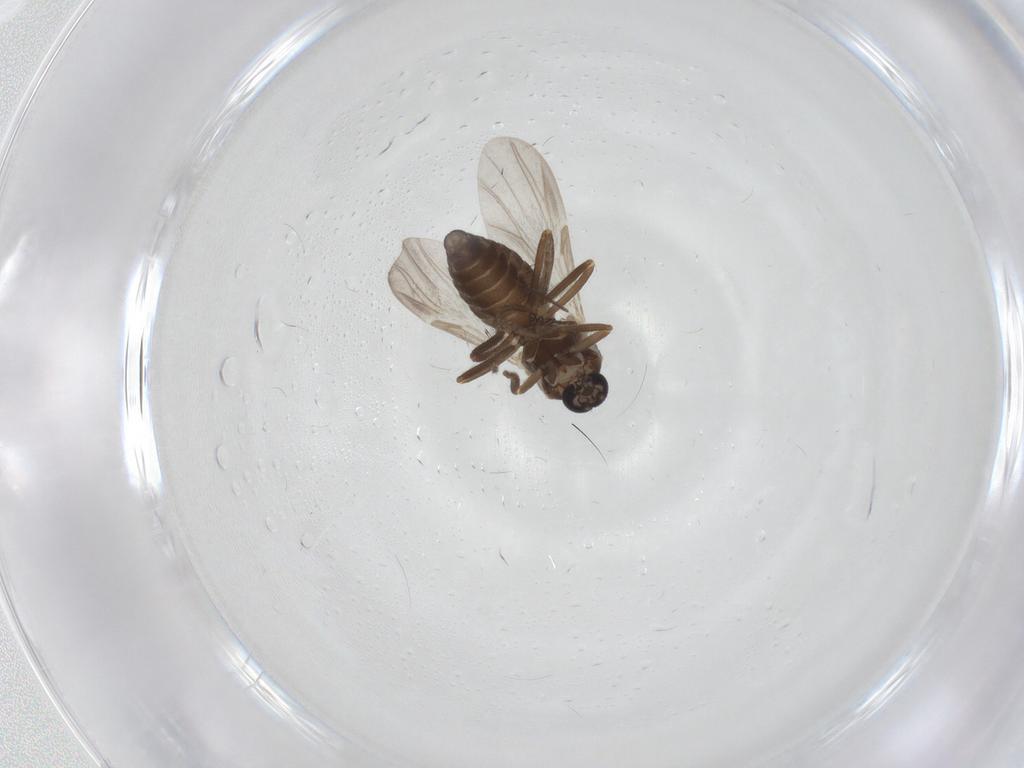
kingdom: Animalia
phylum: Arthropoda
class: Insecta
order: Diptera
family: Ceratopogonidae
